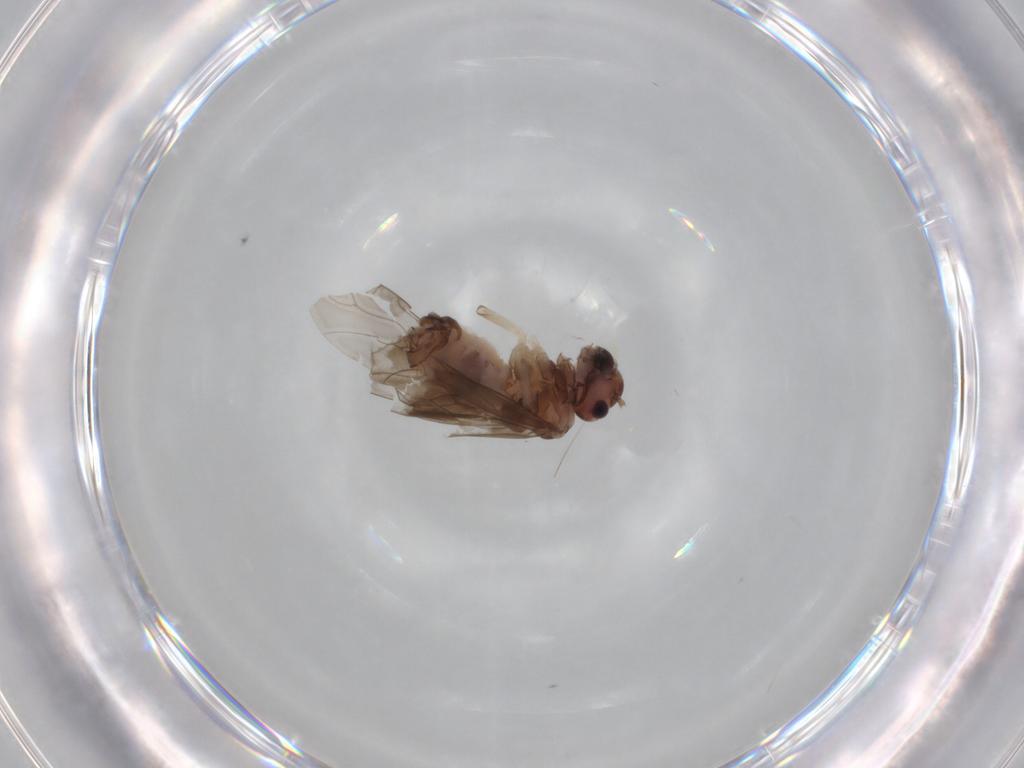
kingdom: Animalia
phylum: Arthropoda
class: Insecta
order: Psocodea
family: Peripsocidae
